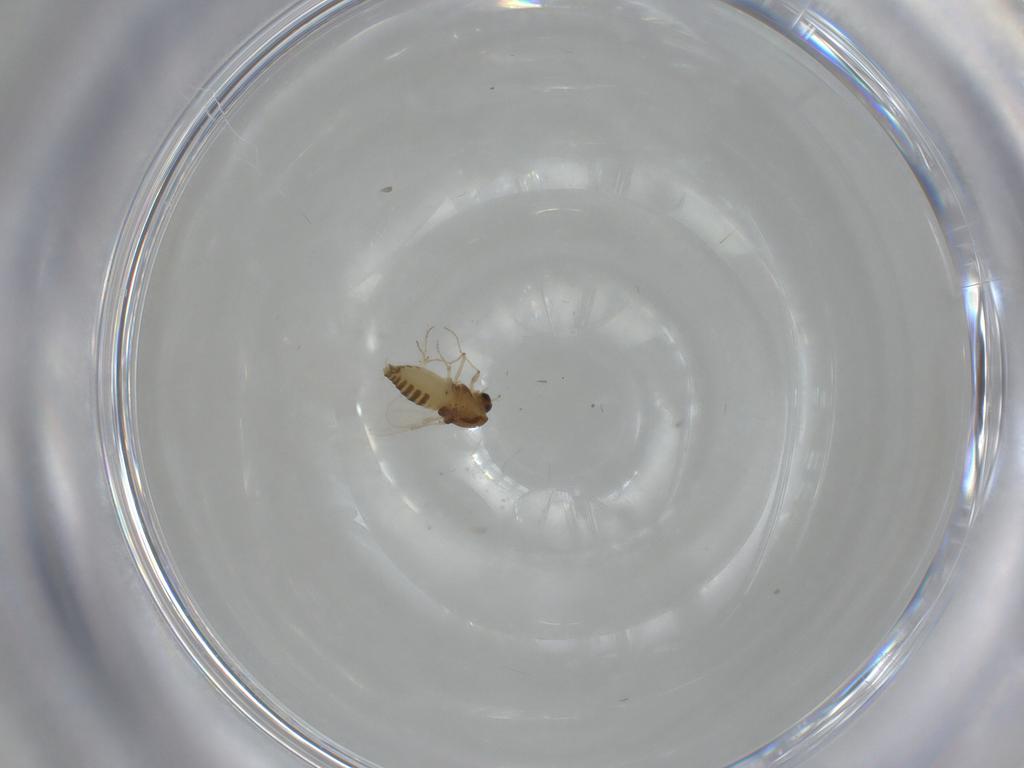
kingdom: Animalia
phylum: Arthropoda
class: Insecta
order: Diptera
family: Chironomidae
